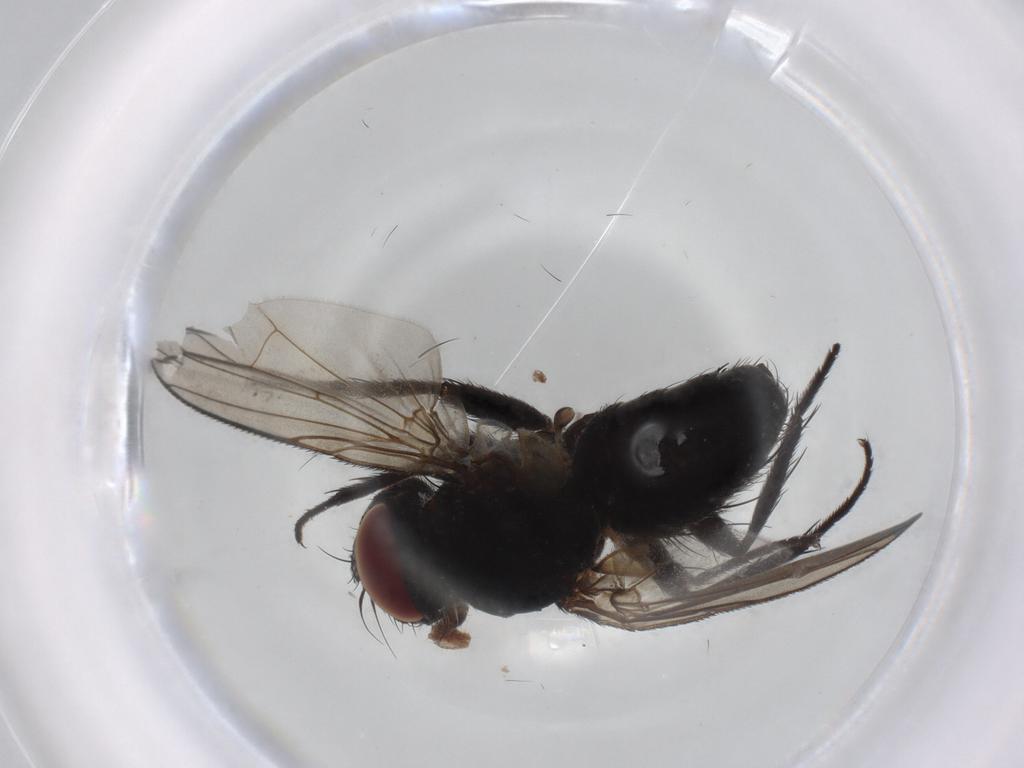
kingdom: Animalia
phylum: Arthropoda
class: Insecta
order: Diptera
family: Tachinidae
